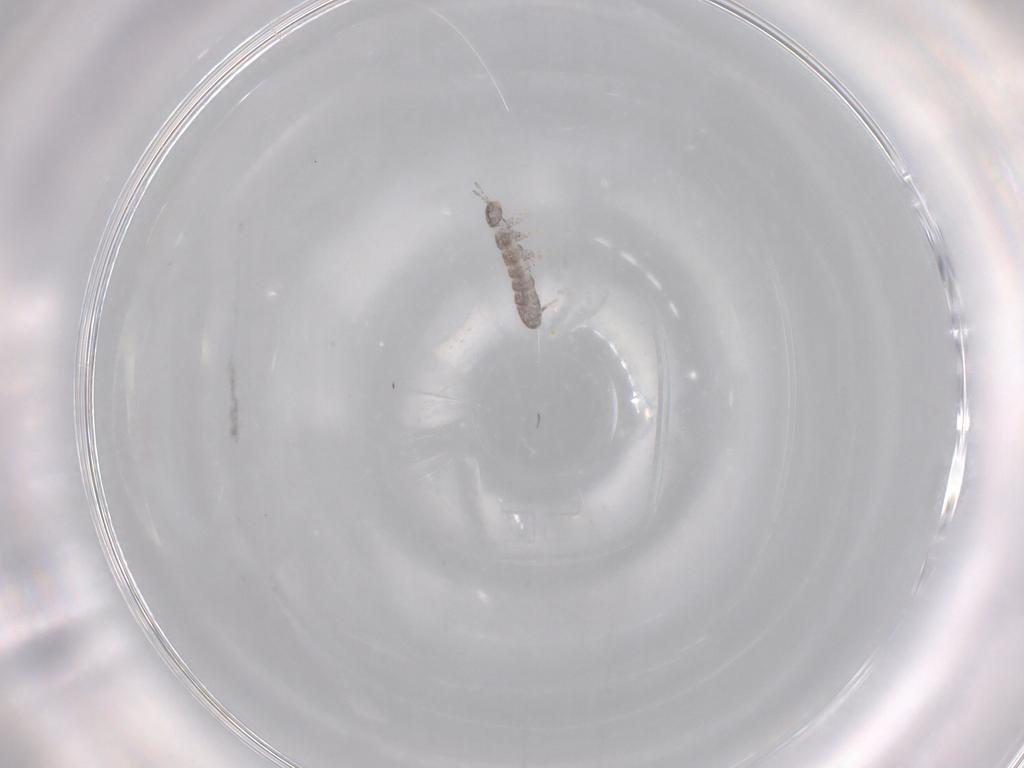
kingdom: Animalia
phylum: Arthropoda
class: Collembola
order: Entomobryomorpha
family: Isotomidae
